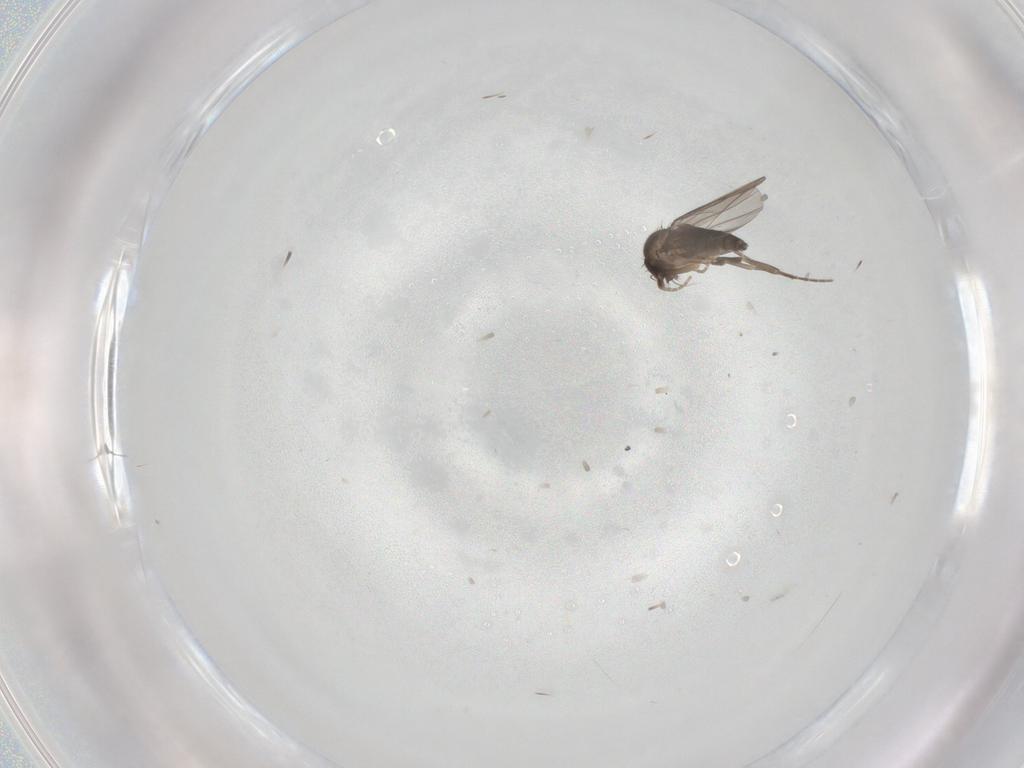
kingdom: Animalia
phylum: Arthropoda
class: Insecta
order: Diptera
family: Phoridae
